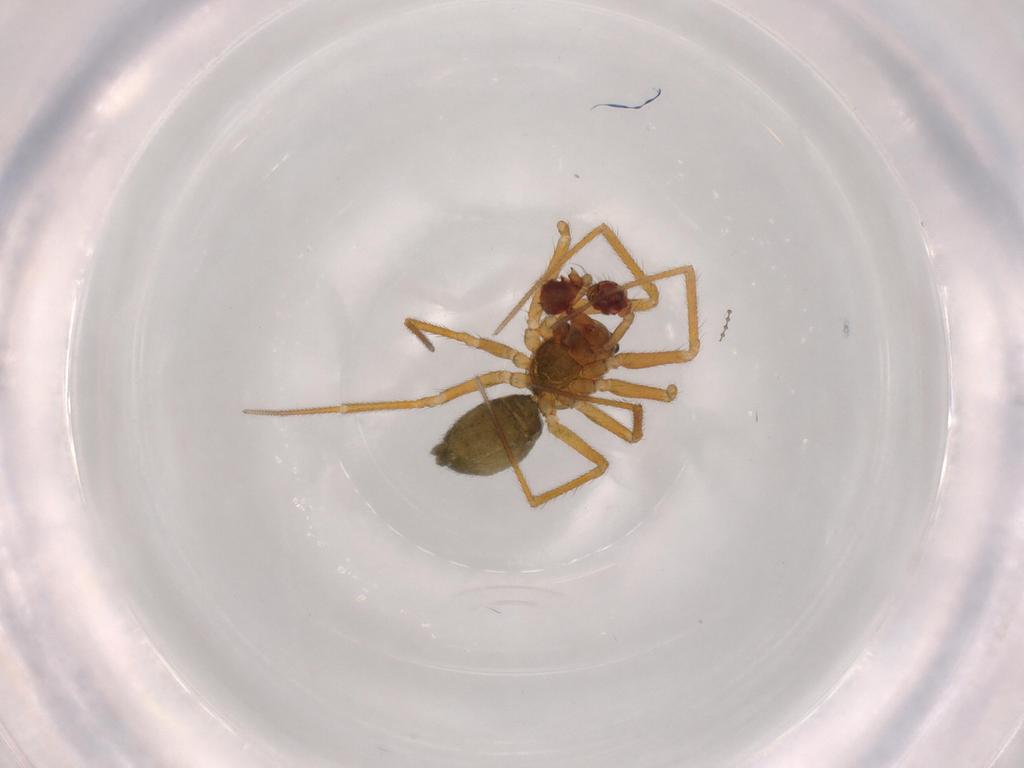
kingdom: Animalia
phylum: Arthropoda
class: Arachnida
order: Araneae
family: Linyphiidae
